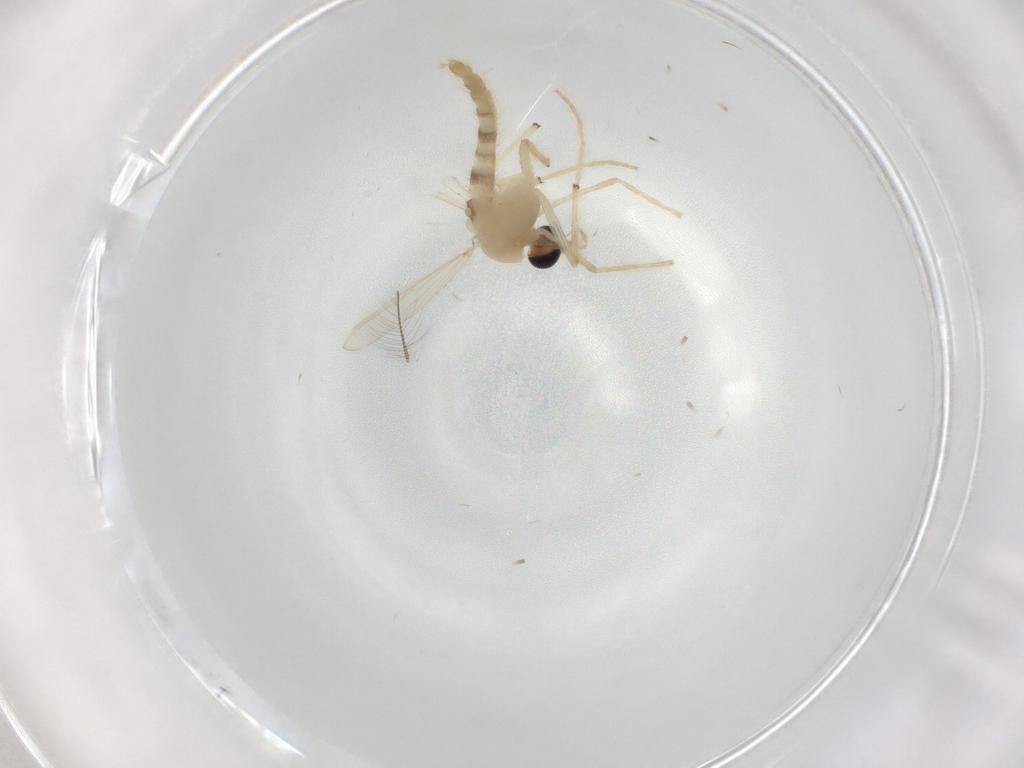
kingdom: Animalia
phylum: Arthropoda
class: Insecta
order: Diptera
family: Chironomidae
